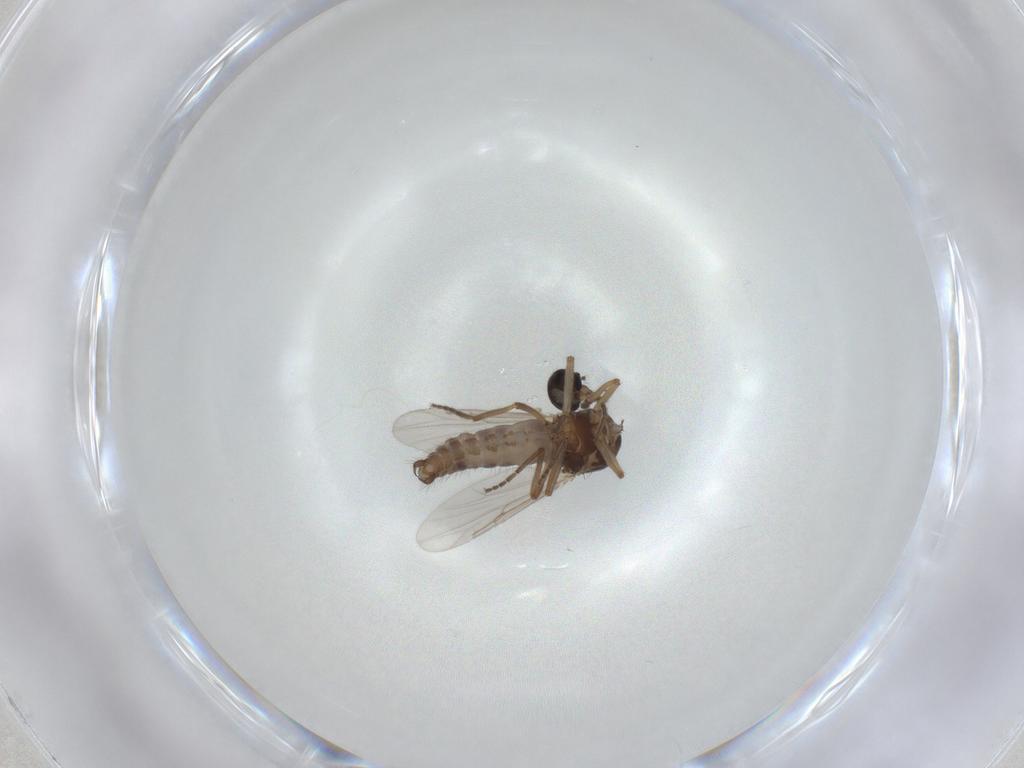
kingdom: Animalia
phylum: Arthropoda
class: Insecta
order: Diptera
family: Ceratopogonidae
